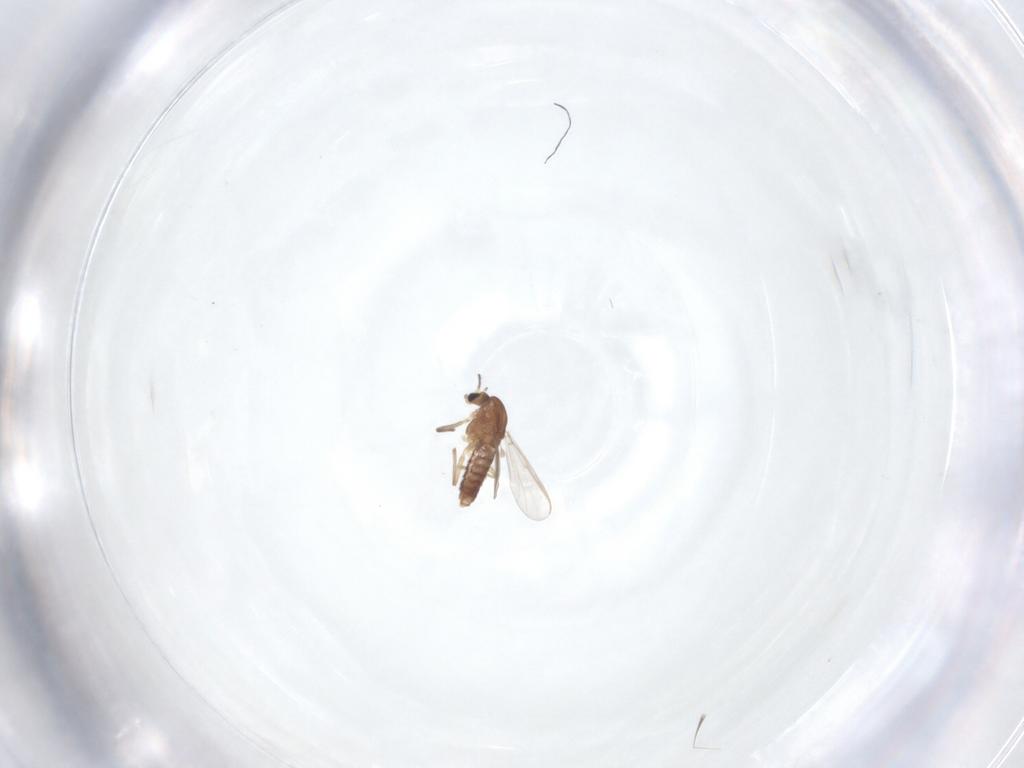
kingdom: Animalia
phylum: Arthropoda
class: Insecta
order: Diptera
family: Chironomidae
